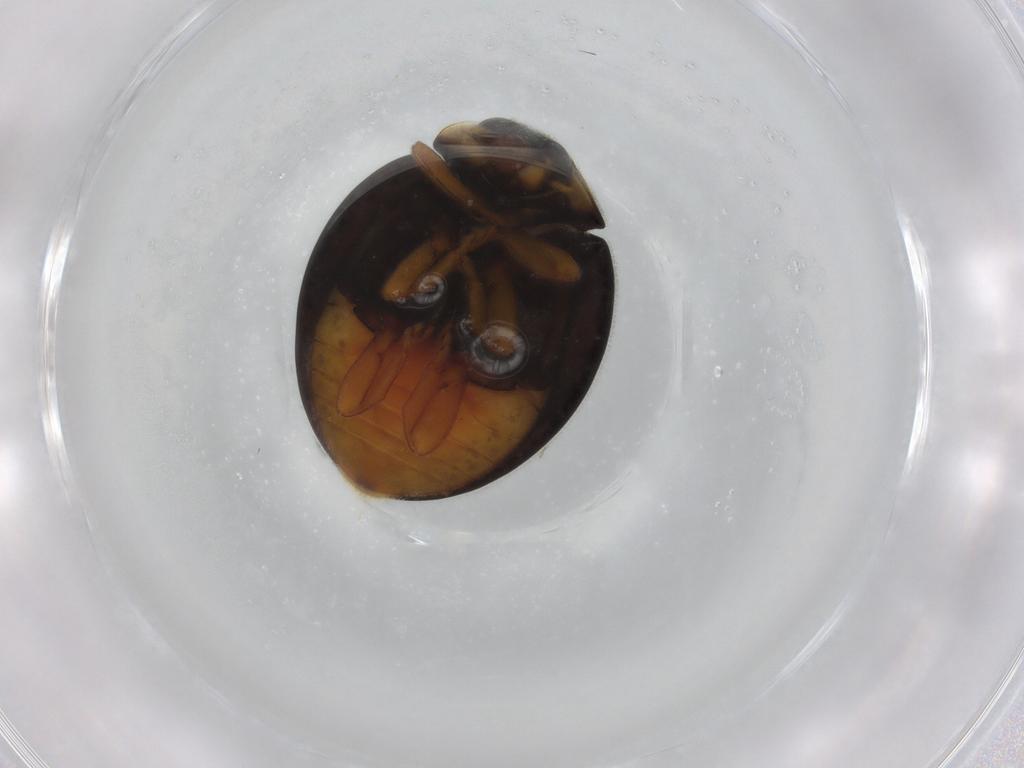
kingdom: Animalia
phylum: Arthropoda
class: Insecta
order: Coleoptera
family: Coccinellidae
